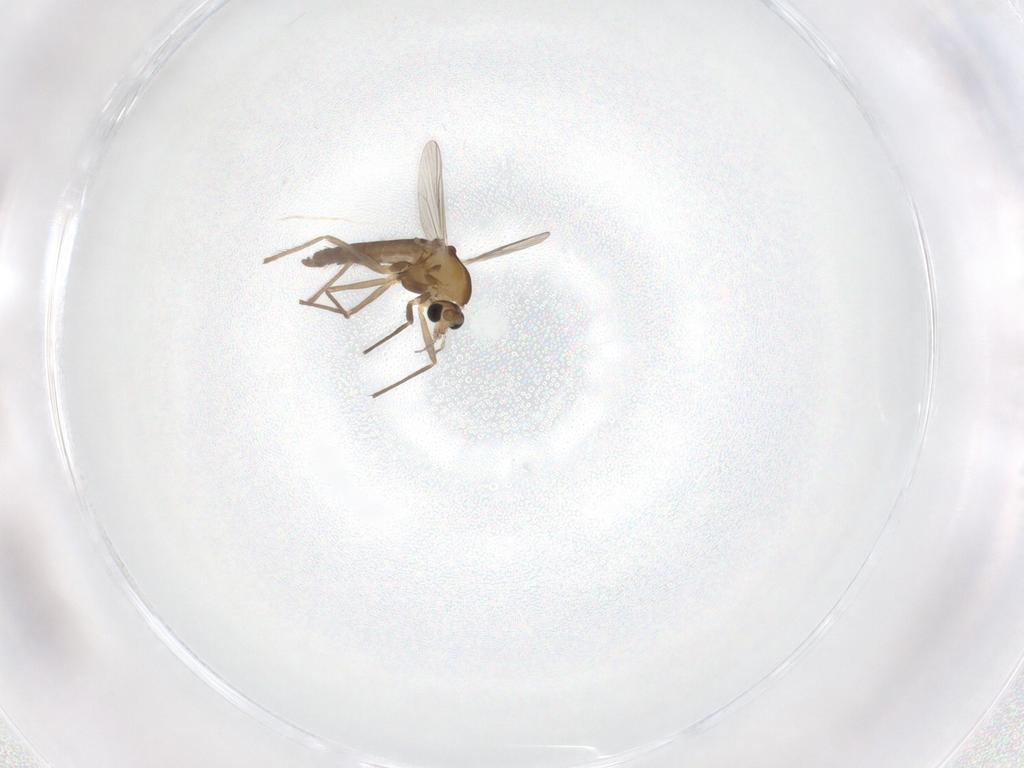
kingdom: Animalia
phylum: Arthropoda
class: Insecta
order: Diptera
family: Chironomidae
